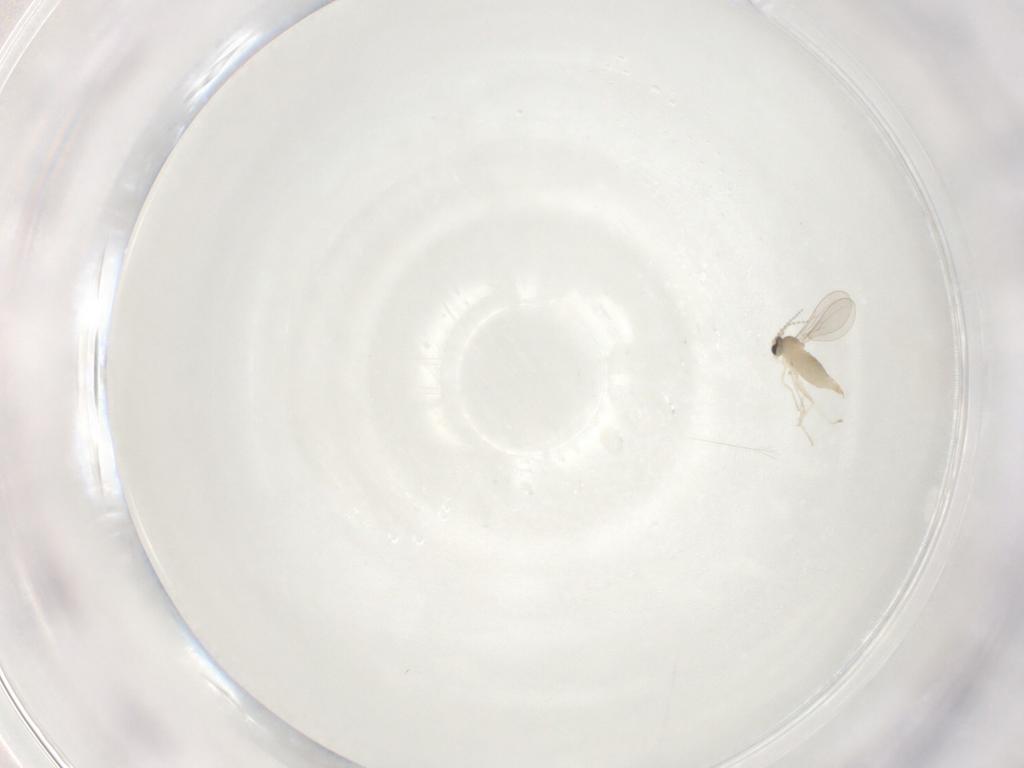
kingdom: Animalia
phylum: Arthropoda
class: Insecta
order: Diptera
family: Cecidomyiidae
